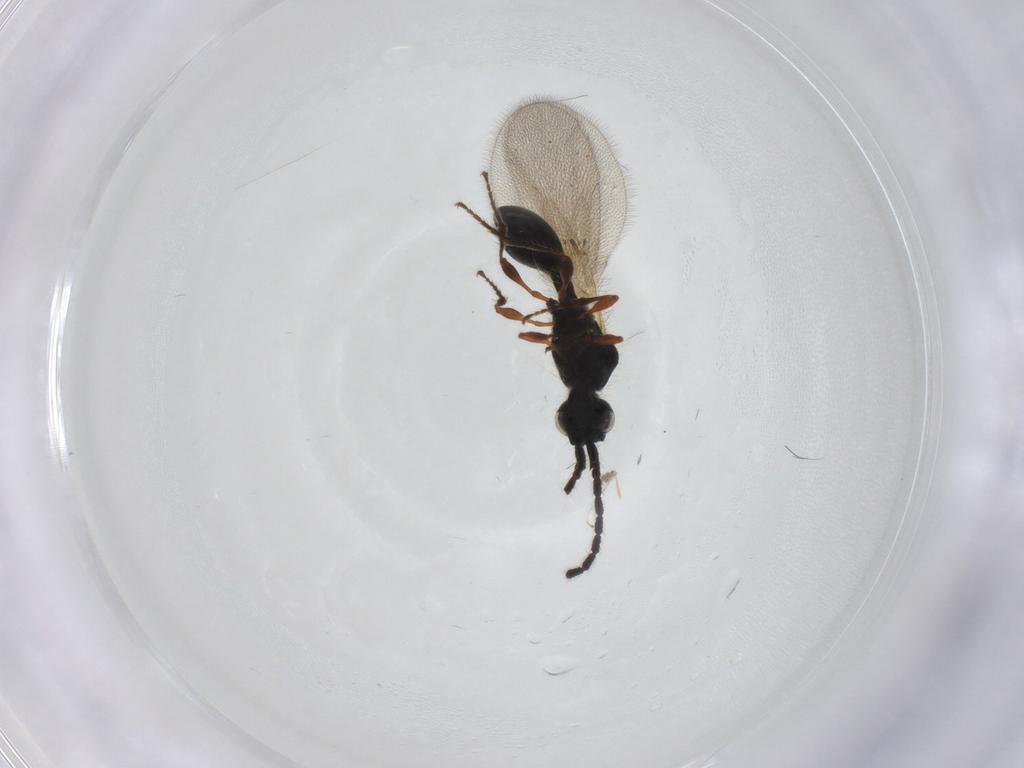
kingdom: Animalia
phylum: Arthropoda
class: Insecta
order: Hymenoptera
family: Diapriidae
